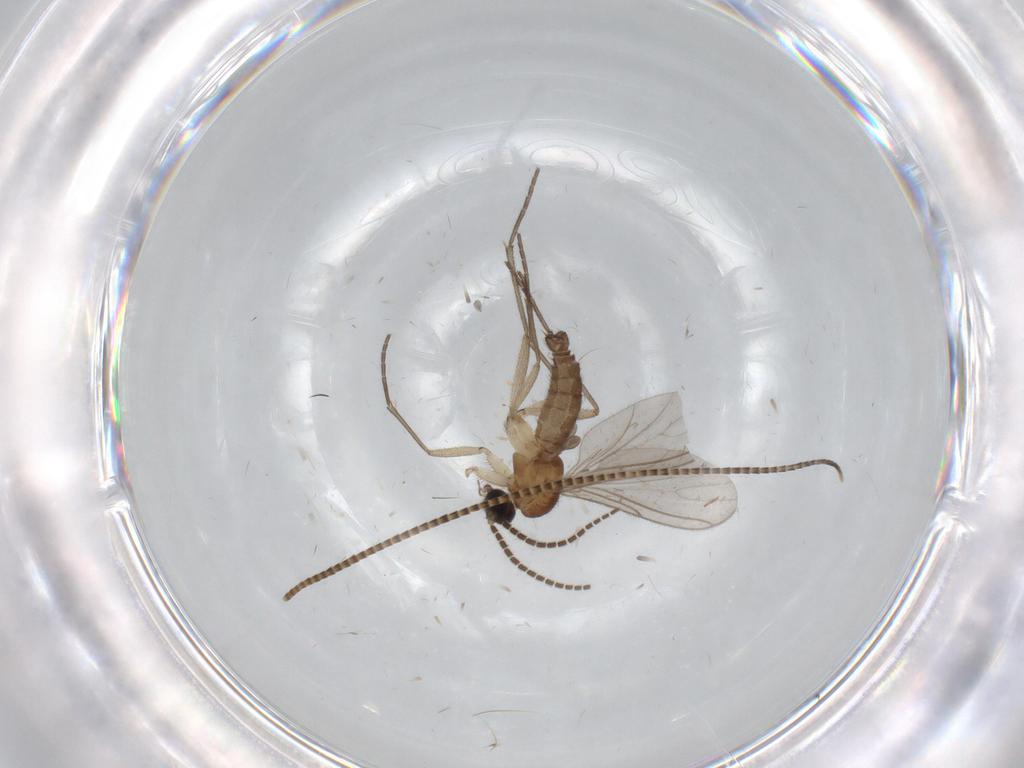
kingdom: Animalia
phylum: Arthropoda
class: Insecta
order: Diptera
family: Sciaridae
